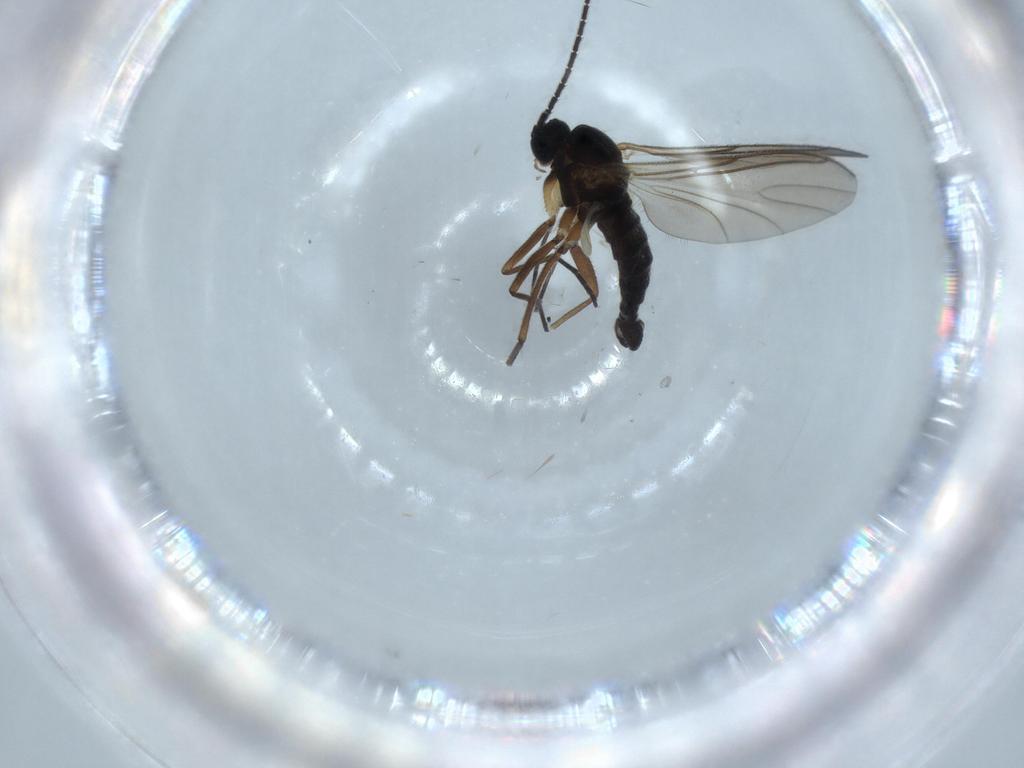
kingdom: Animalia
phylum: Arthropoda
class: Insecta
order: Diptera
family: Sciaridae
